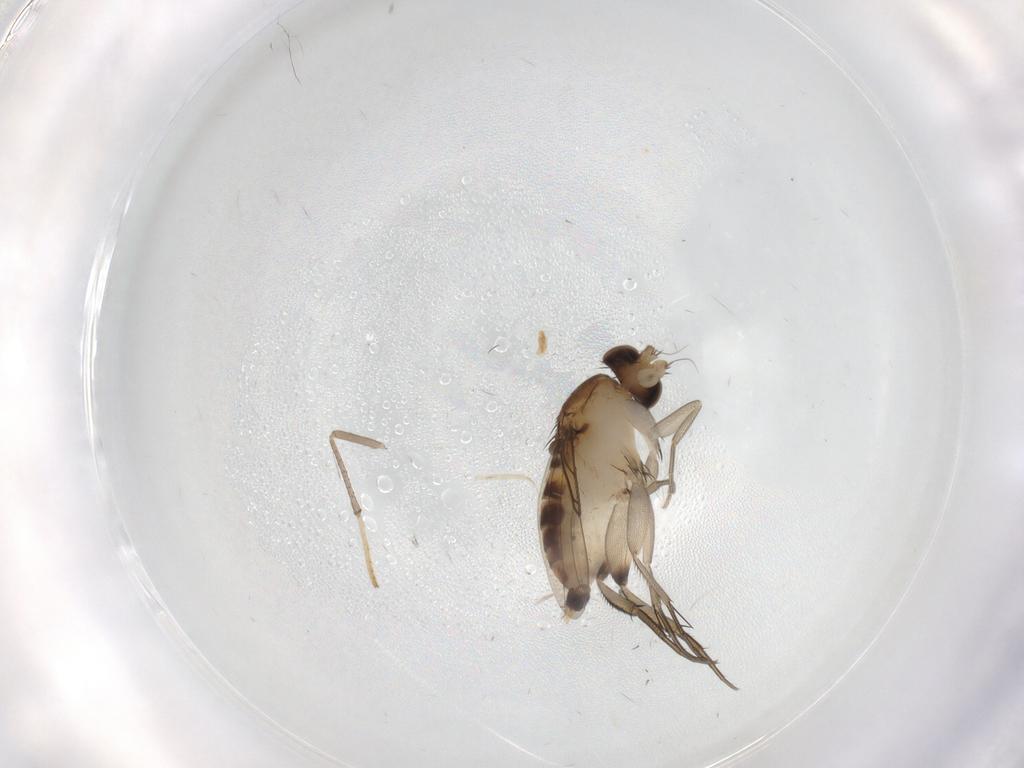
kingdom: Animalia
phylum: Arthropoda
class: Insecta
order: Diptera
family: Phoridae
